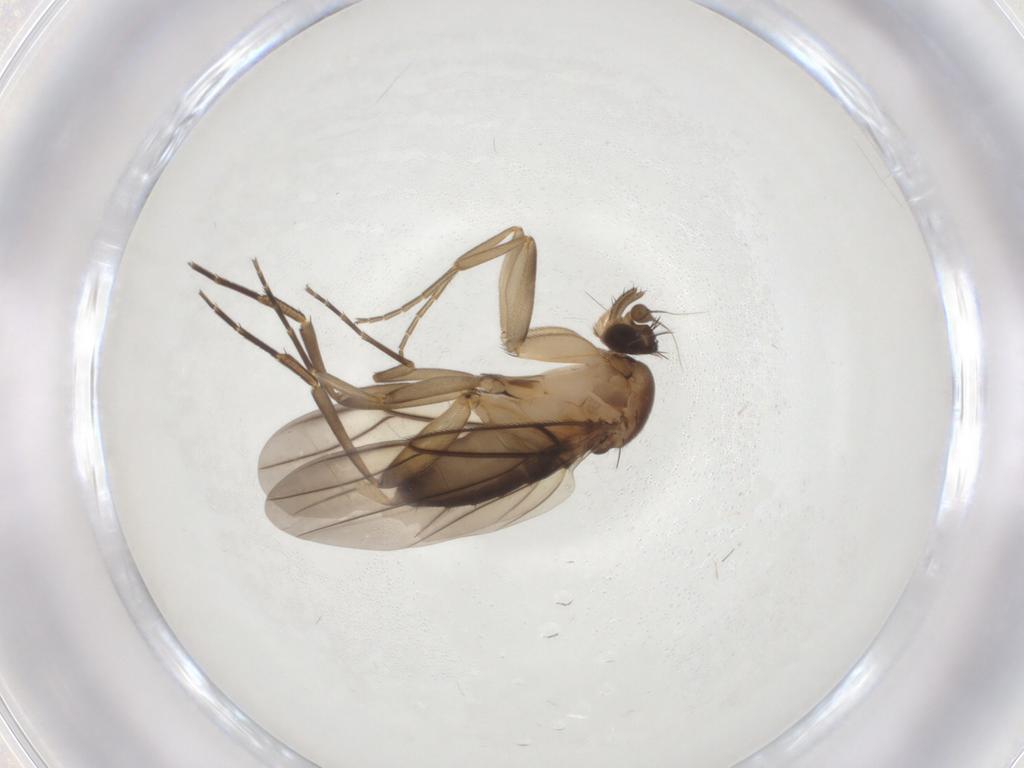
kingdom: Animalia
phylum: Arthropoda
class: Insecta
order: Diptera
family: Phoridae
